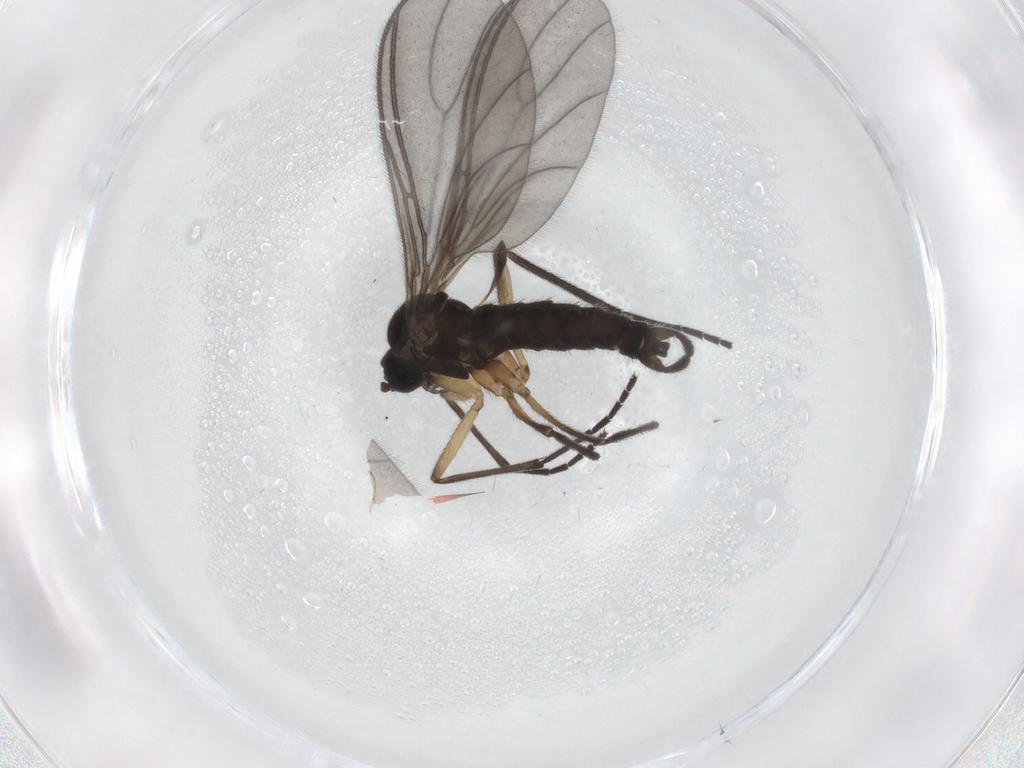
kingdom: Animalia
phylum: Arthropoda
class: Insecta
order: Diptera
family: Sciaridae
